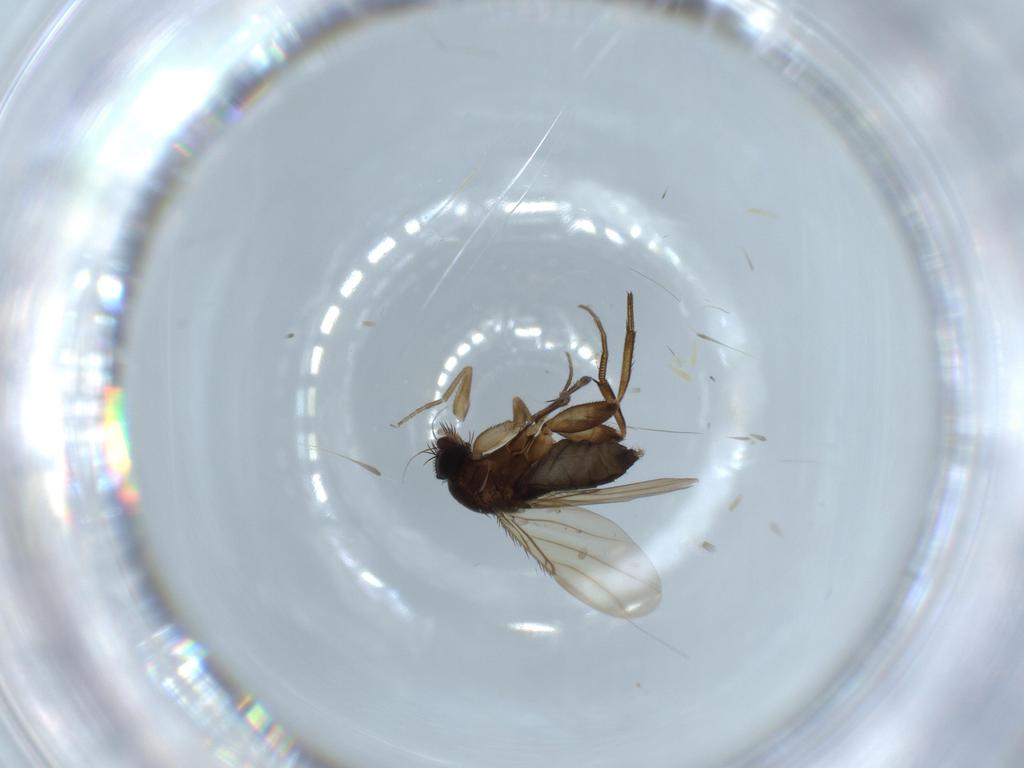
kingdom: Animalia
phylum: Arthropoda
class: Insecta
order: Diptera
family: Phoridae
